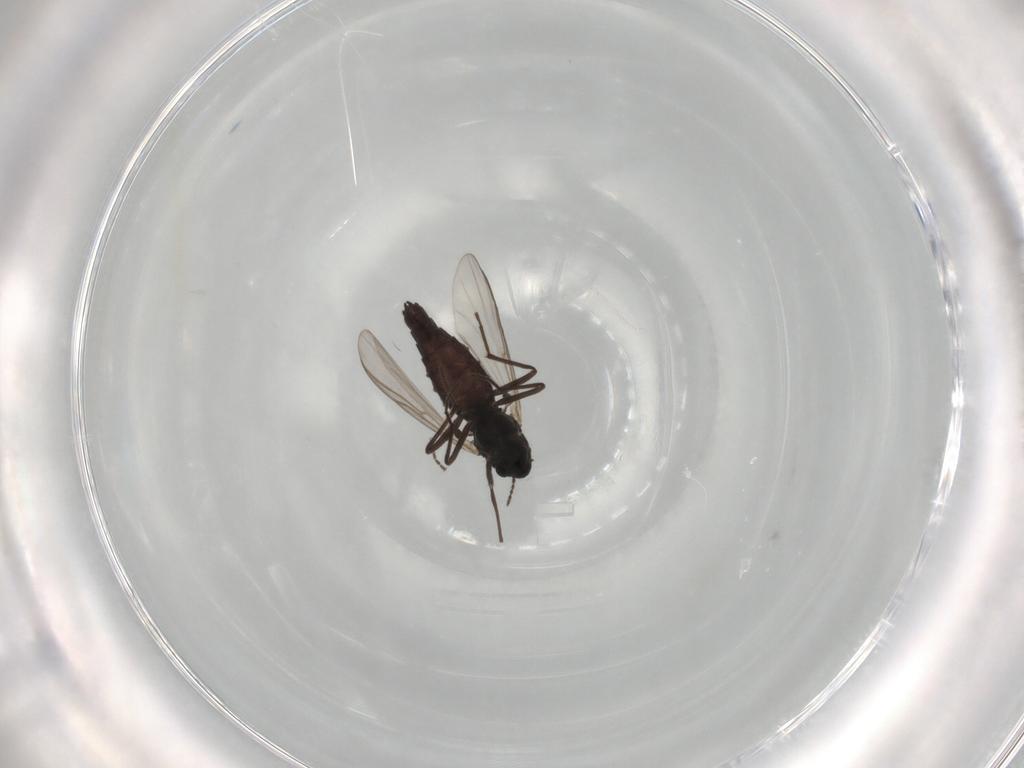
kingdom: Animalia
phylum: Arthropoda
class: Insecta
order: Diptera
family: Chironomidae
